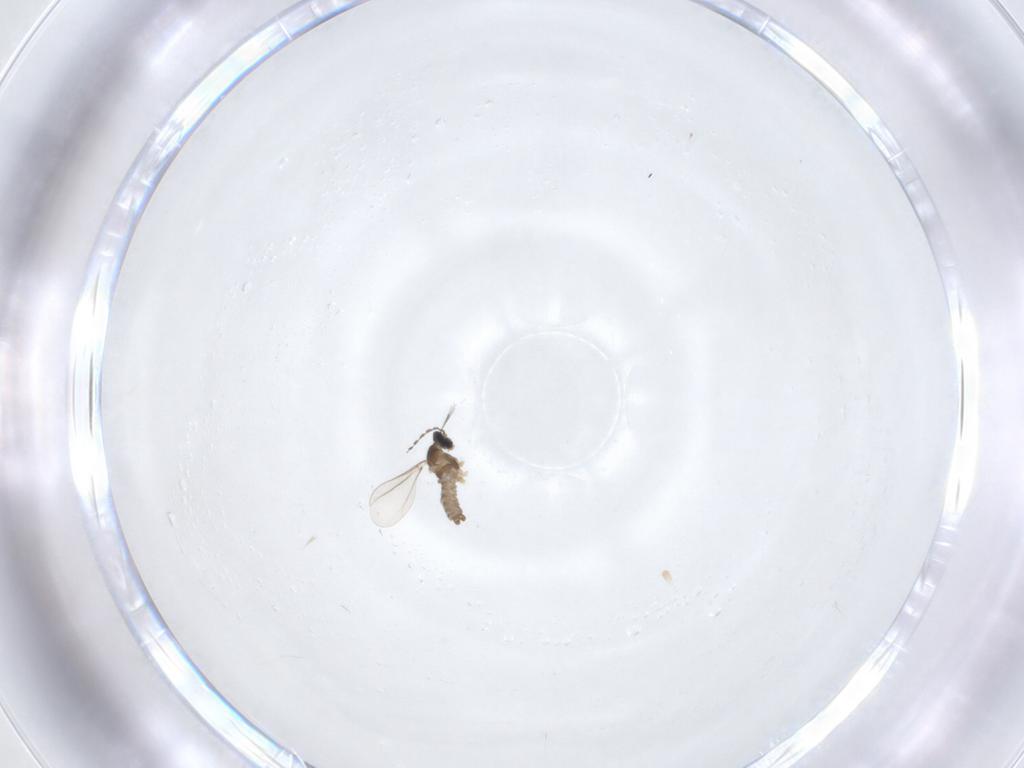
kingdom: Animalia
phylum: Arthropoda
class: Insecta
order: Diptera
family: Cecidomyiidae
